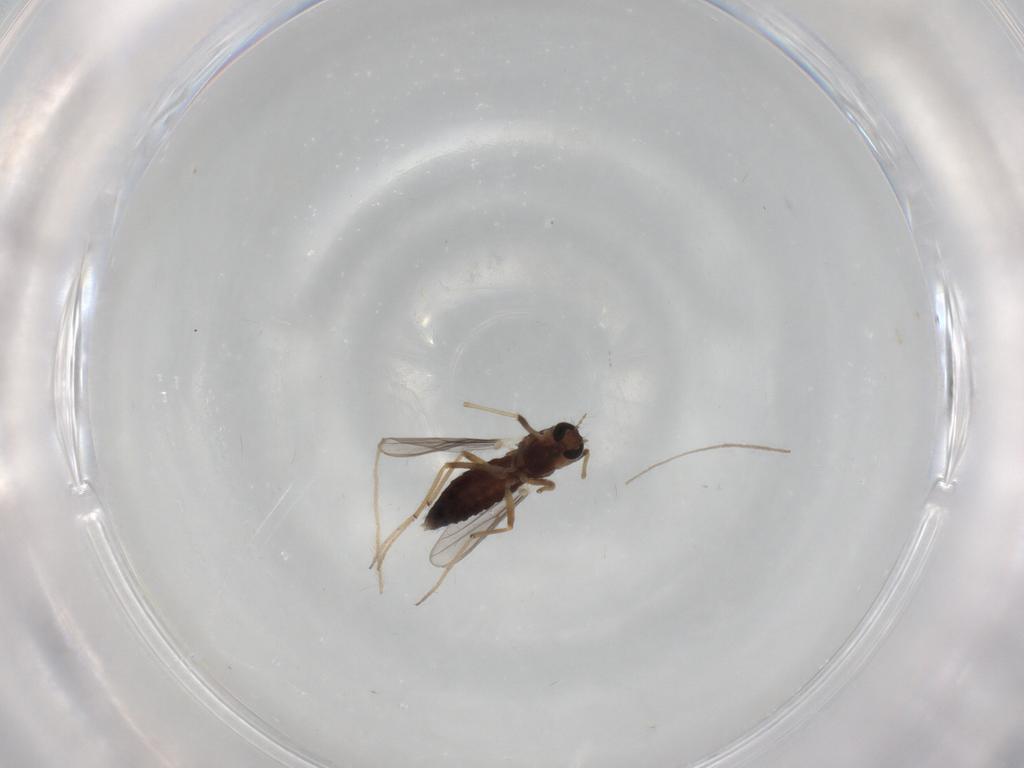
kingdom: Animalia
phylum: Arthropoda
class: Insecta
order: Diptera
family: Chironomidae
